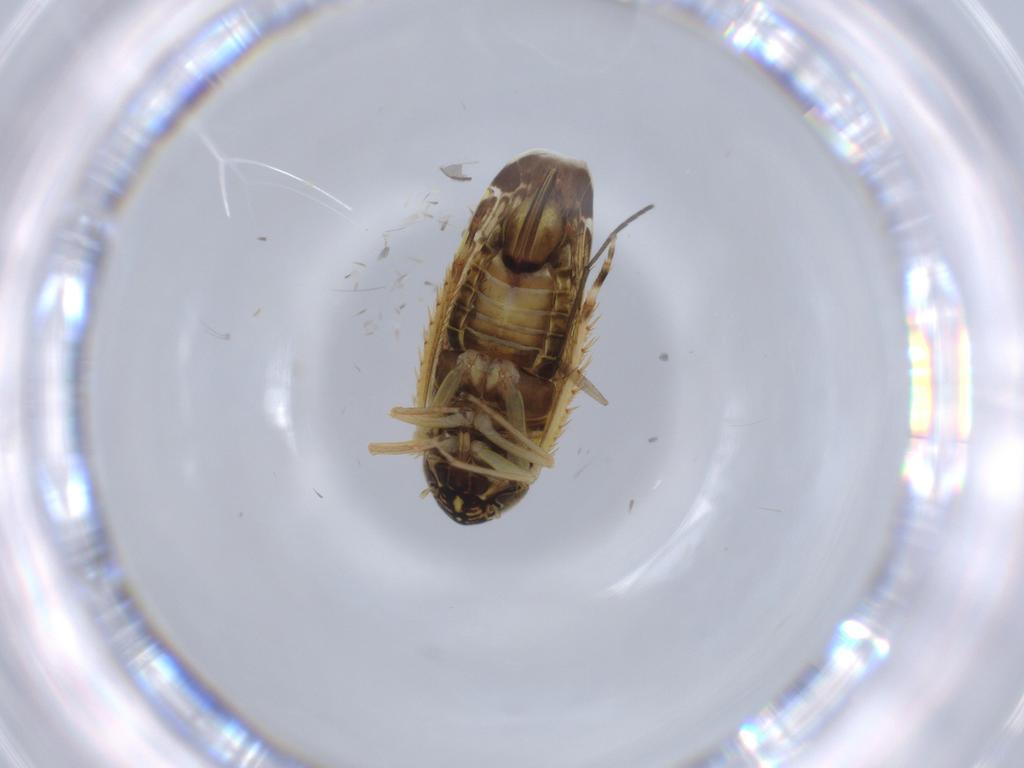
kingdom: Animalia
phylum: Arthropoda
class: Insecta
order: Hemiptera
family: Cicadellidae
